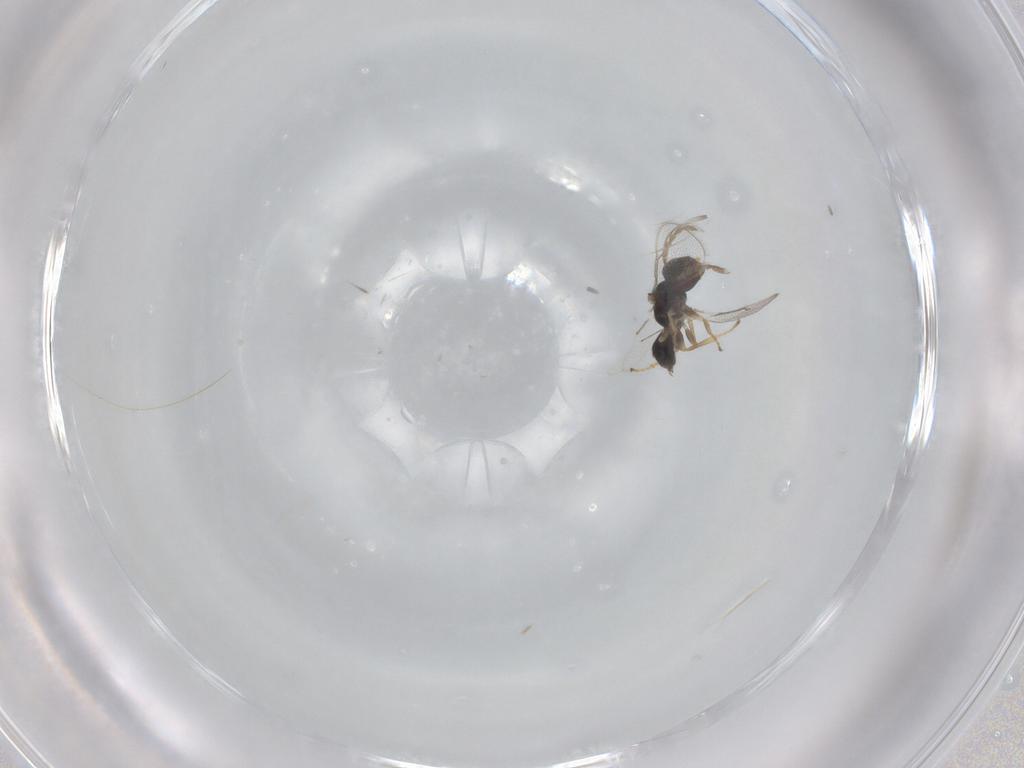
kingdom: Animalia
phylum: Arthropoda
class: Insecta
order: Hymenoptera
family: Eulophidae
